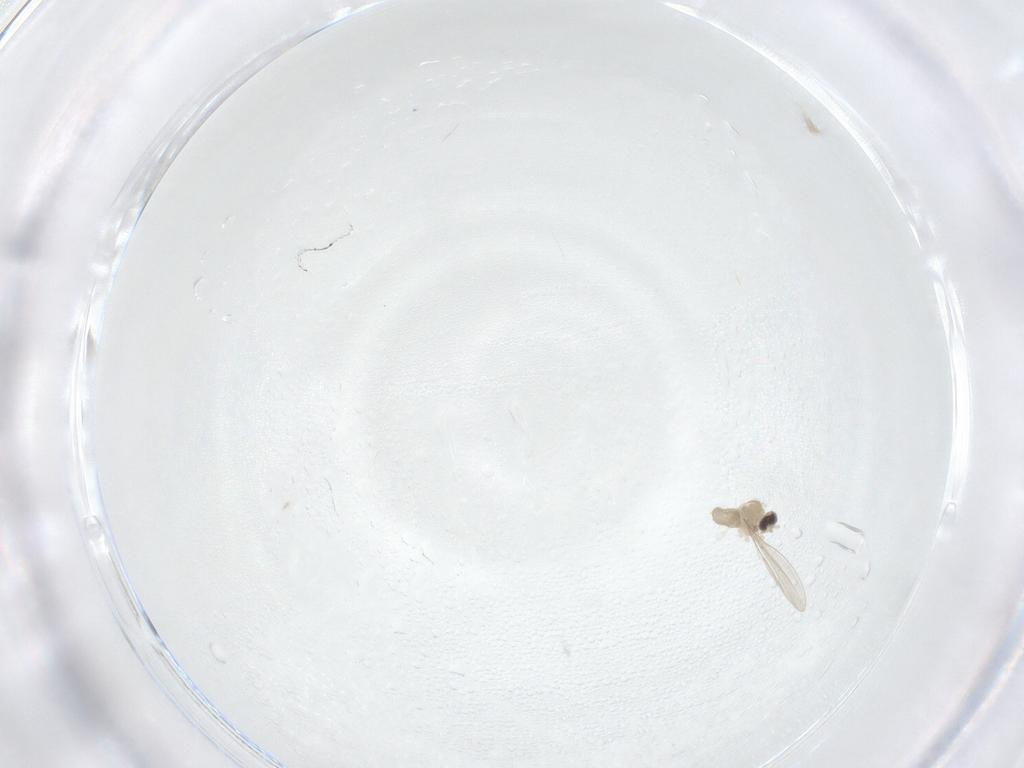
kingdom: Animalia
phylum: Arthropoda
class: Insecta
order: Diptera
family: Cecidomyiidae
